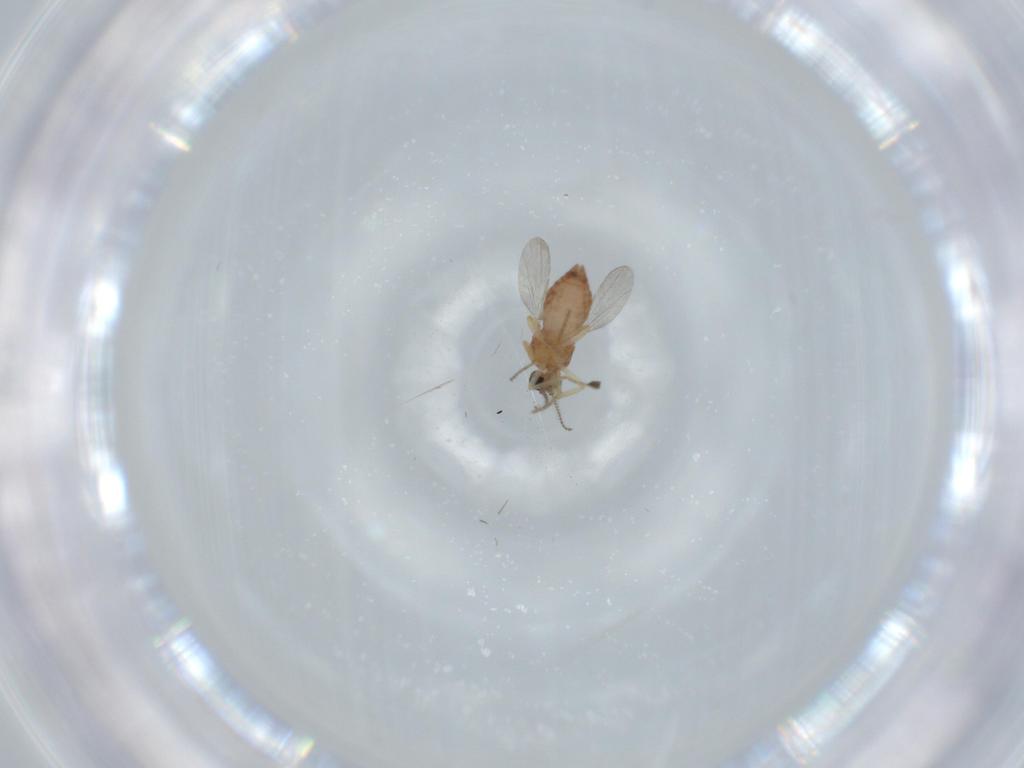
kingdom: Animalia
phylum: Arthropoda
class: Insecta
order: Diptera
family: Ceratopogonidae
